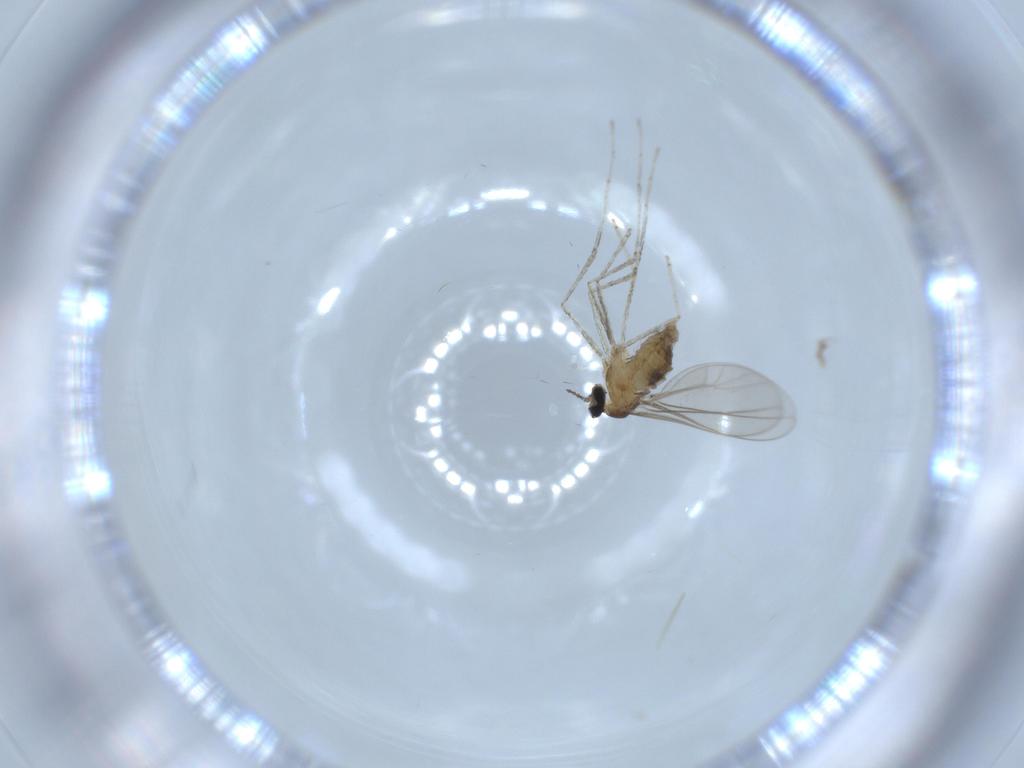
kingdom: Animalia
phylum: Arthropoda
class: Insecta
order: Diptera
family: Cecidomyiidae
